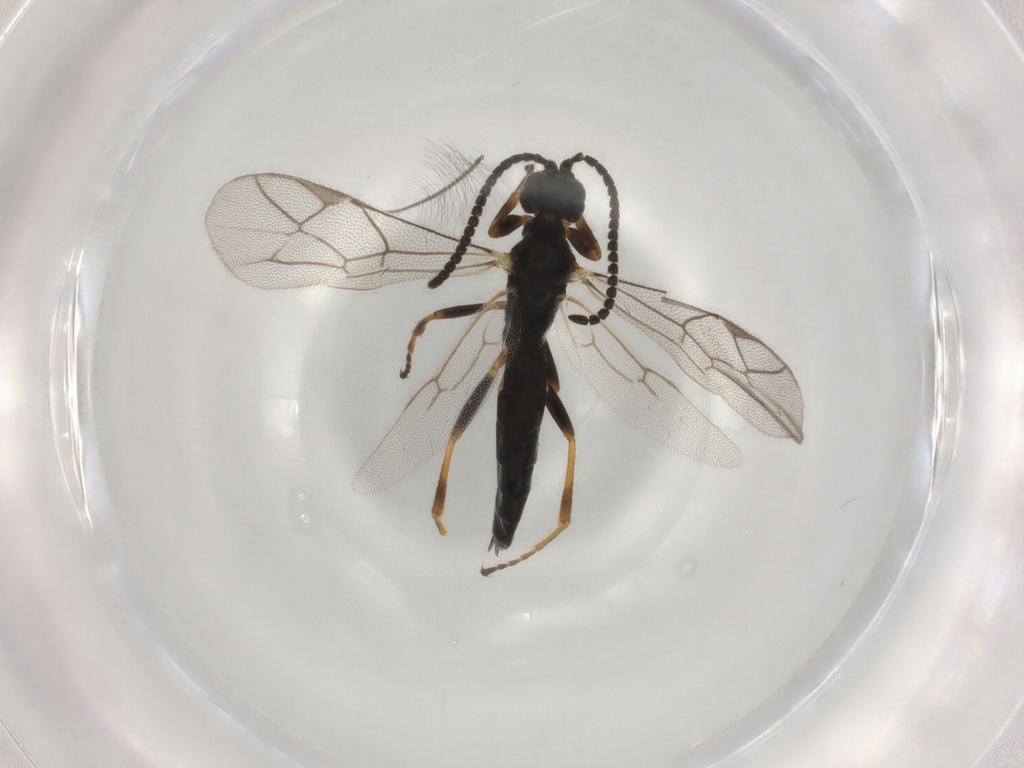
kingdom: Animalia
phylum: Arthropoda
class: Insecta
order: Hymenoptera
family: Ichneumonidae
